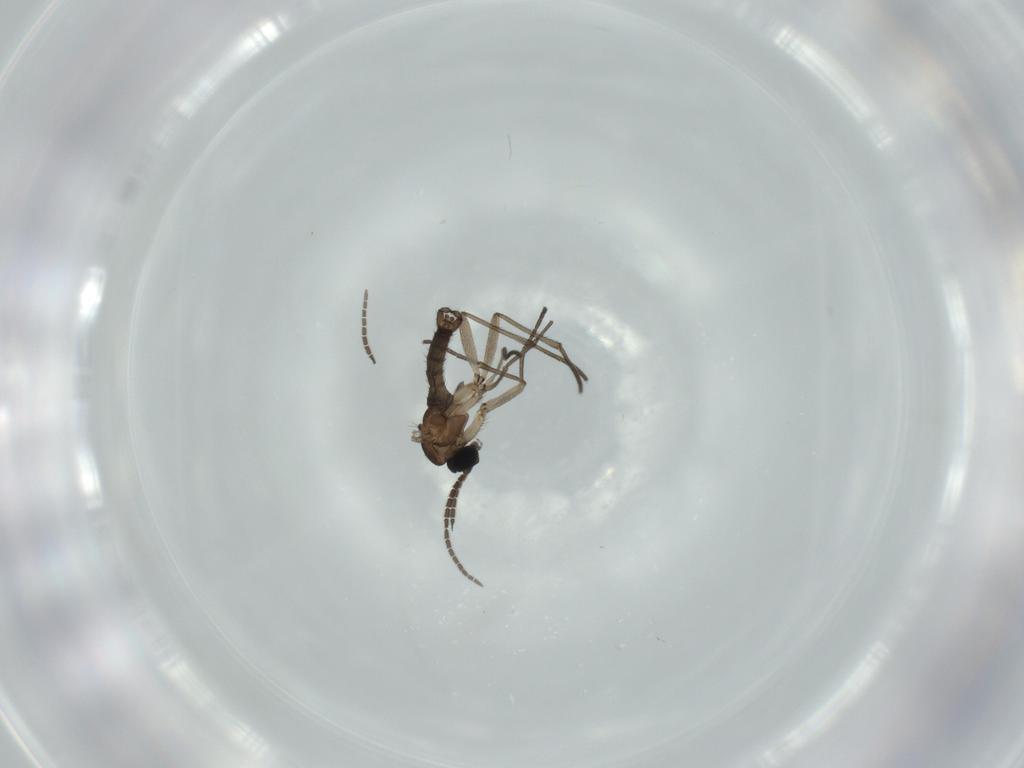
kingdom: Animalia
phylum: Arthropoda
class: Insecta
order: Diptera
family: Sciaridae
